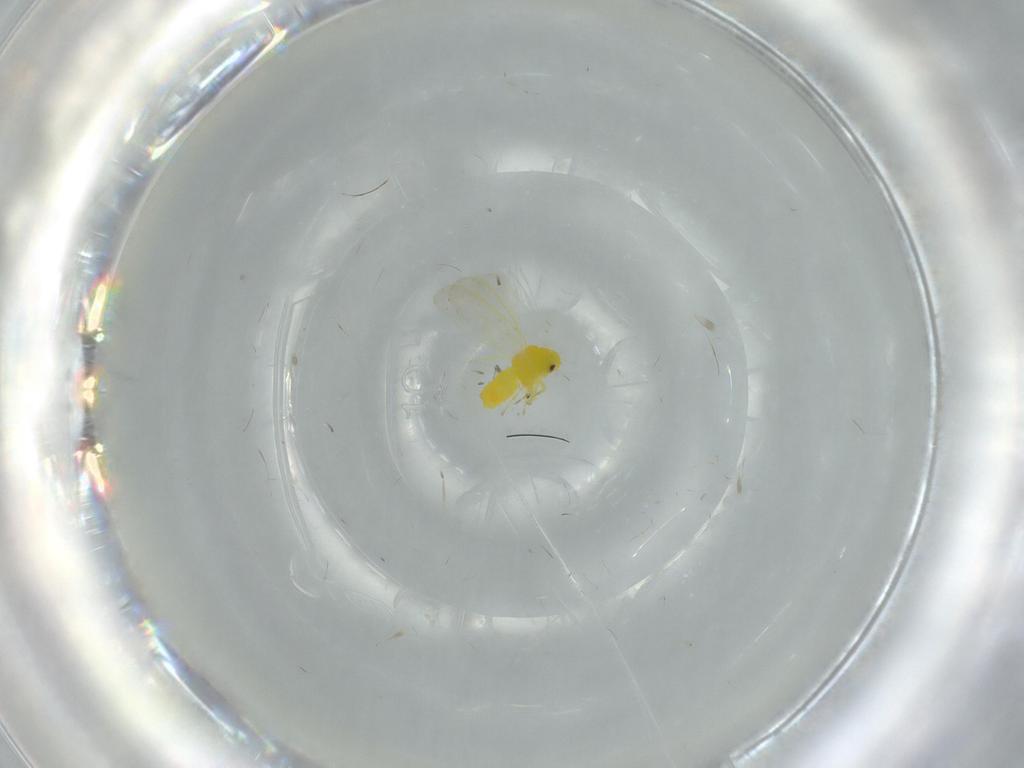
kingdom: Animalia
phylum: Arthropoda
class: Insecta
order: Hemiptera
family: Aleyrodidae
